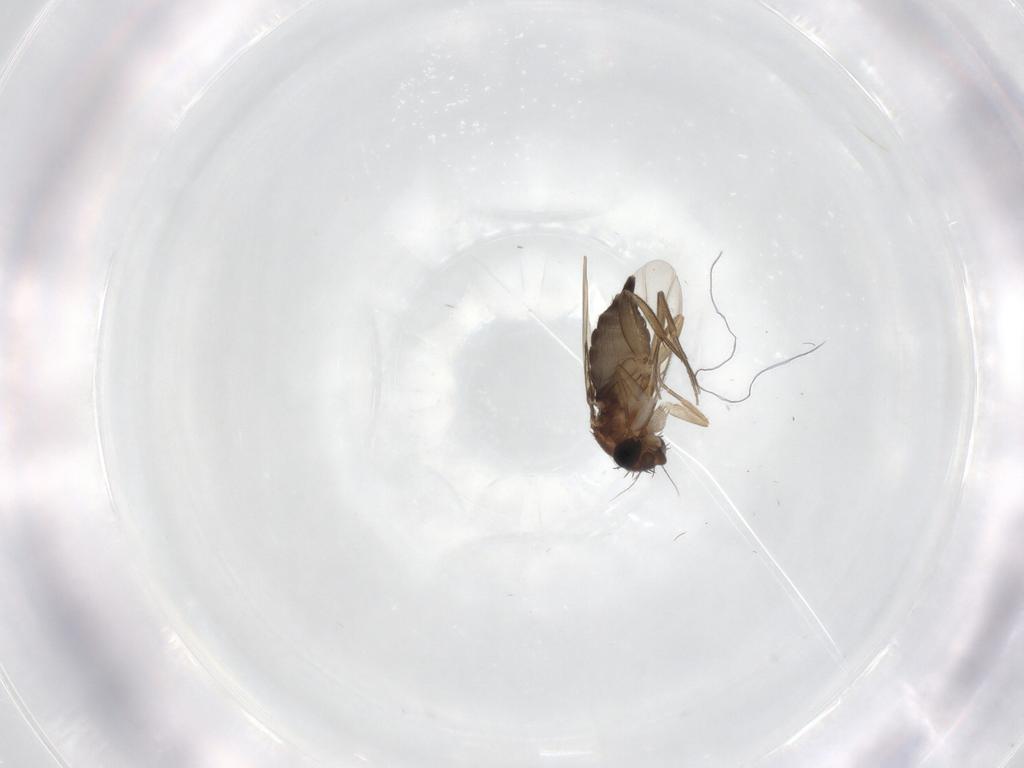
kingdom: Animalia
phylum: Arthropoda
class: Insecta
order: Diptera
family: Phoridae
